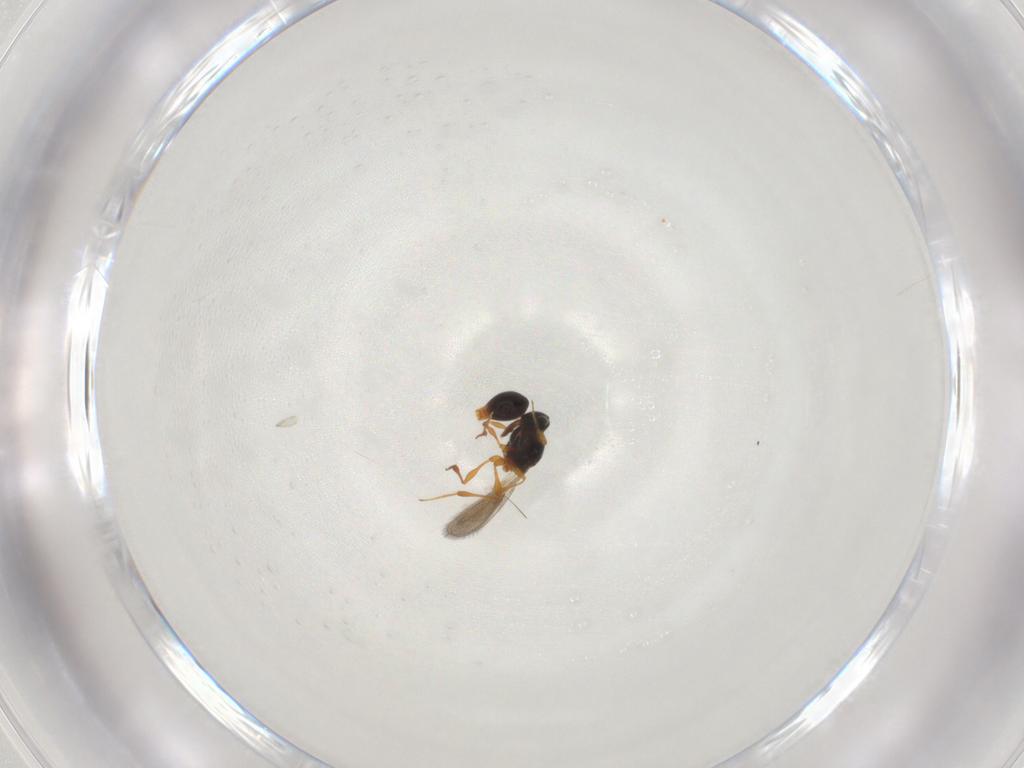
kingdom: Animalia
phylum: Arthropoda
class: Insecta
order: Hymenoptera
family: Platygastridae
